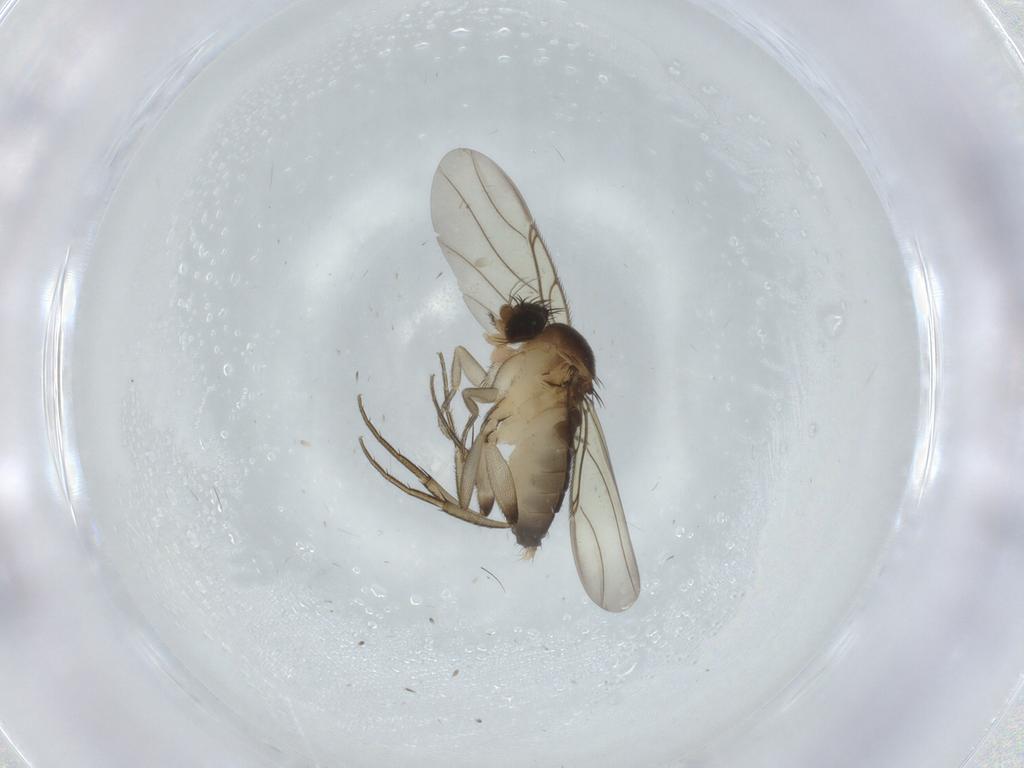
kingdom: Animalia
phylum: Arthropoda
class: Insecta
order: Diptera
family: Phoridae
